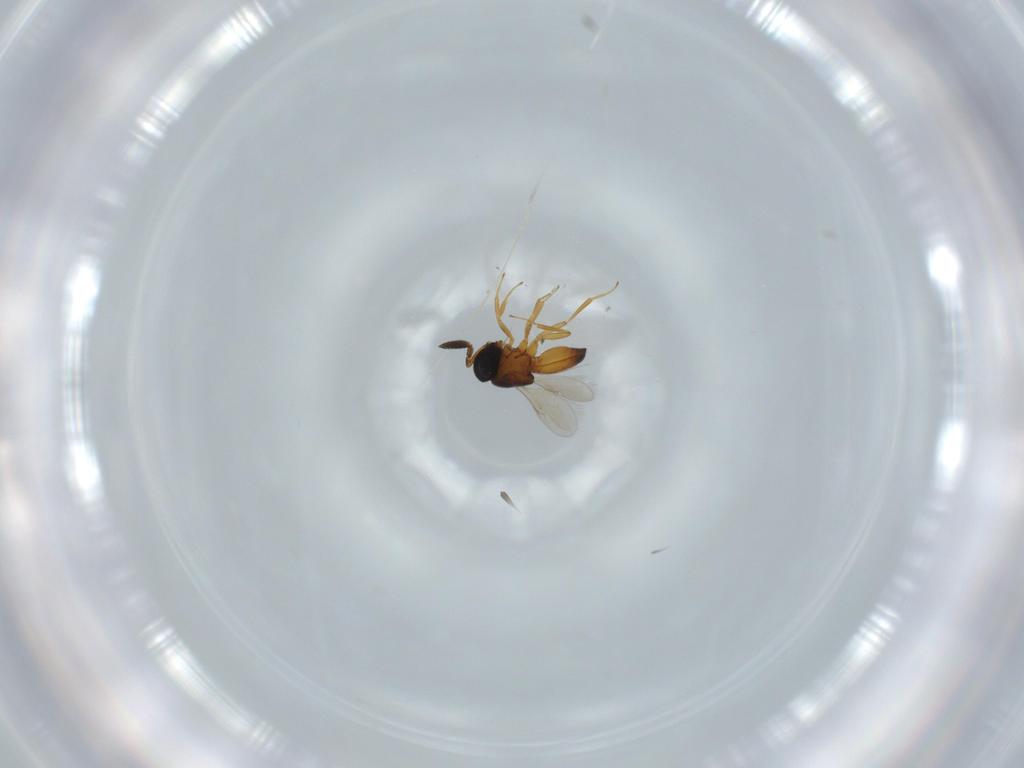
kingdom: Animalia
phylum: Arthropoda
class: Insecta
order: Hymenoptera
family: Scelionidae
